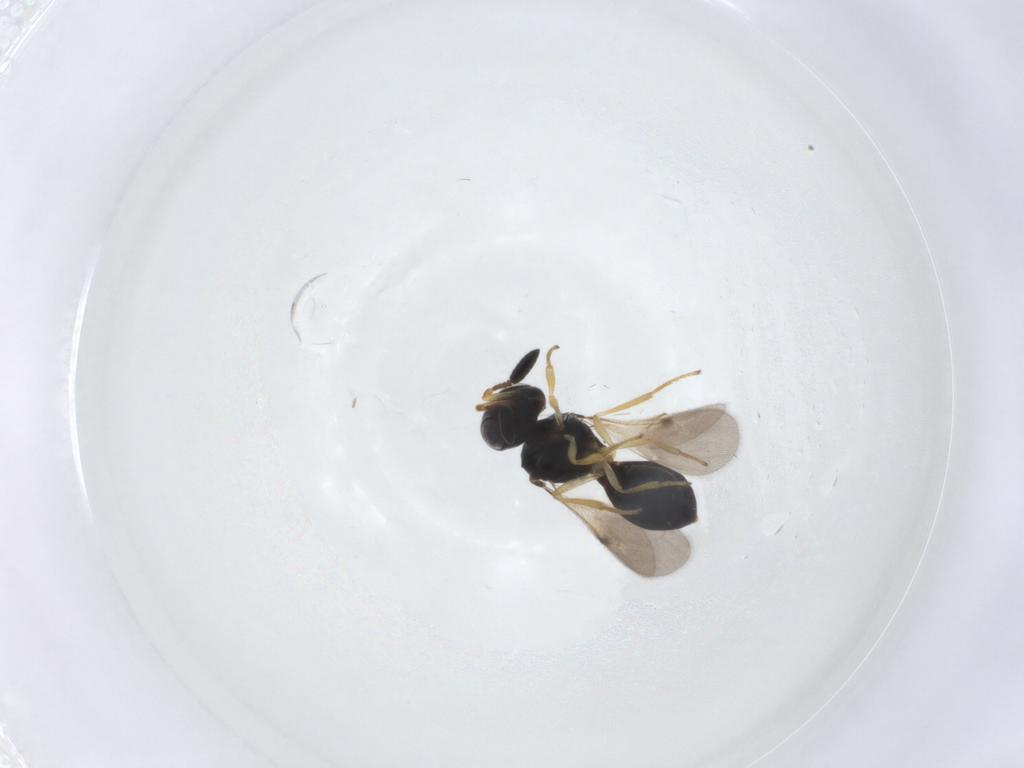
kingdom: Animalia
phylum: Arthropoda
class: Insecta
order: Hymenoptera
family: Scelionidae
